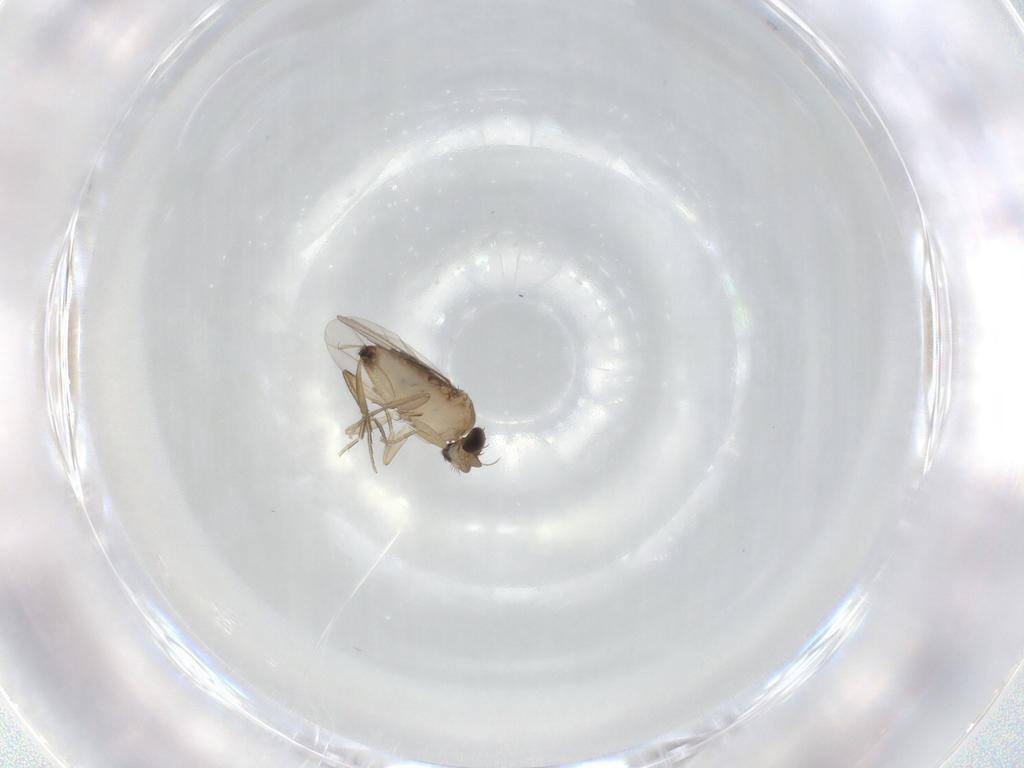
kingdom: Animalia
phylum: Arthropoda
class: Insecta
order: Diptera
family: Phoridae
